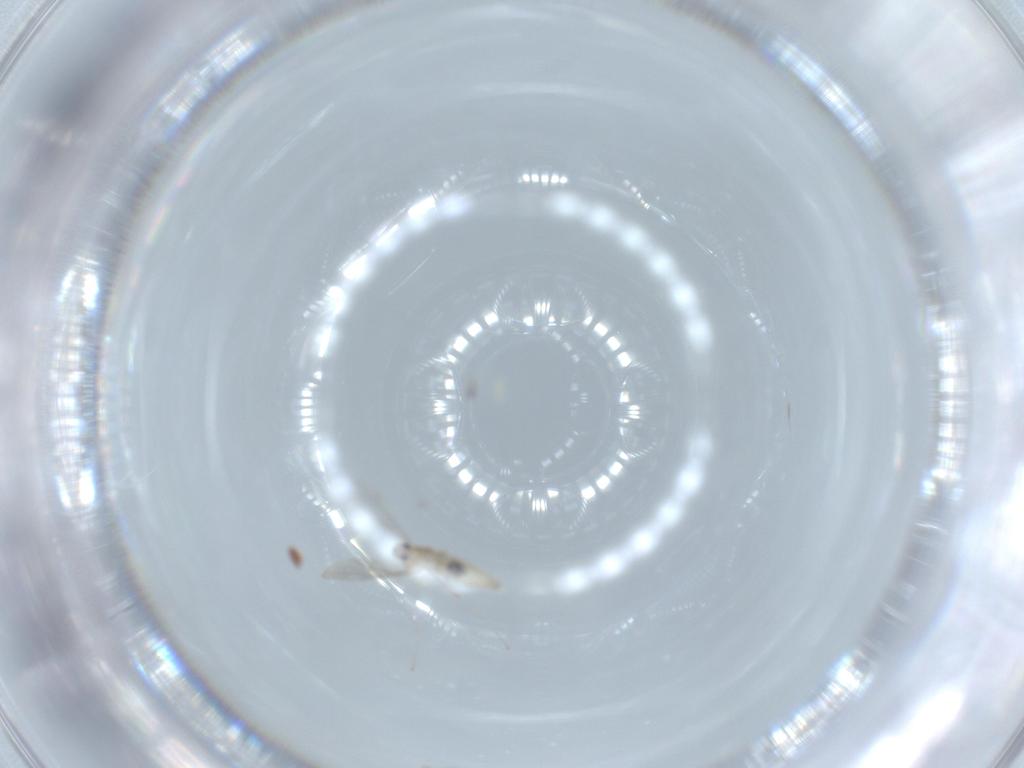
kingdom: Animalia
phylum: Arthropoda
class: Insecta
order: Diptera
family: Cecidomyiidae
